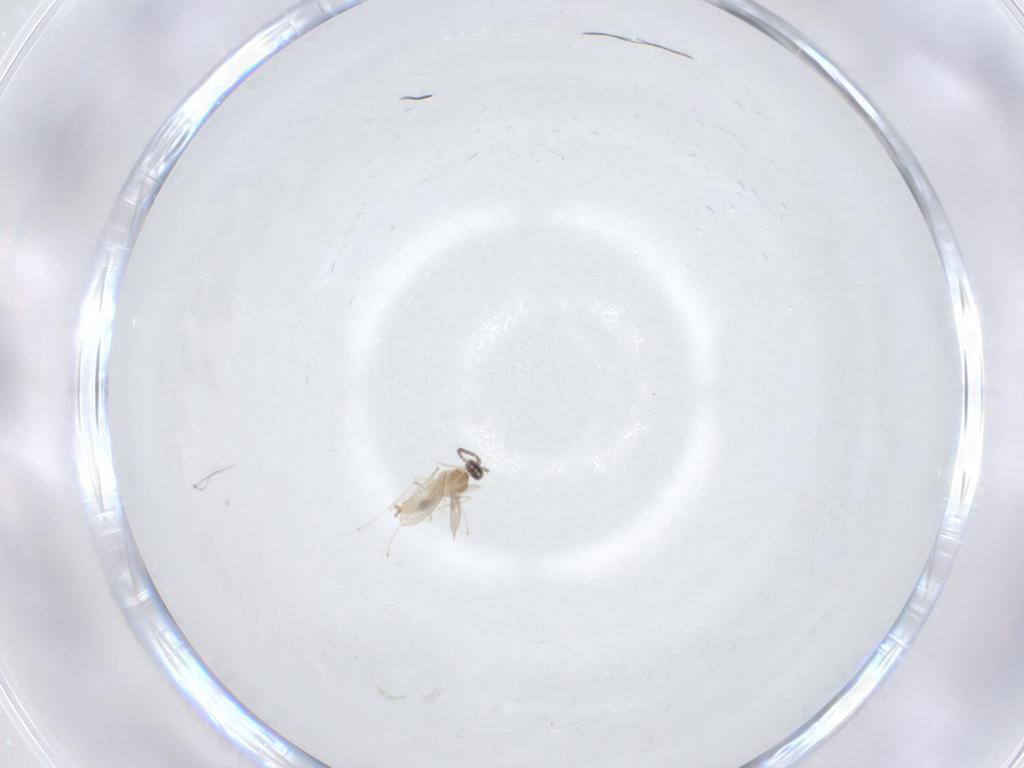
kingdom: Animalia
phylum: Arthropoda
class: Insecta
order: Diptera
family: Cecidomyiidae
